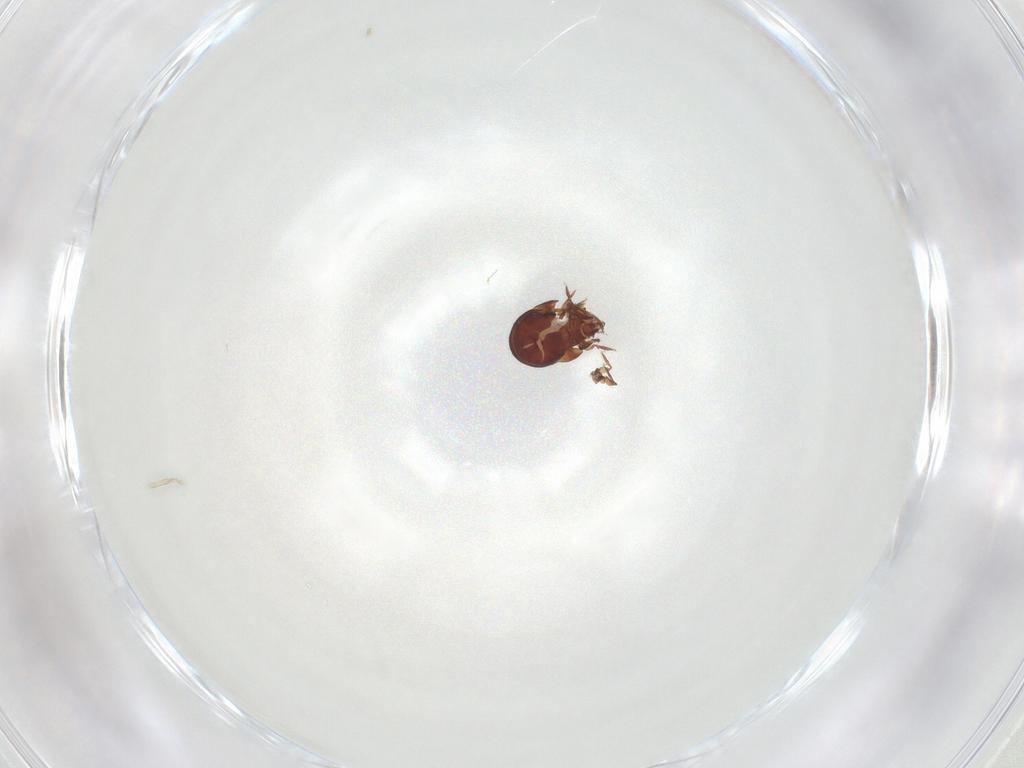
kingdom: Animalia
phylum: Arthropoda
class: Arachnida
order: Sarcoptiformes
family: Humerobatidae
